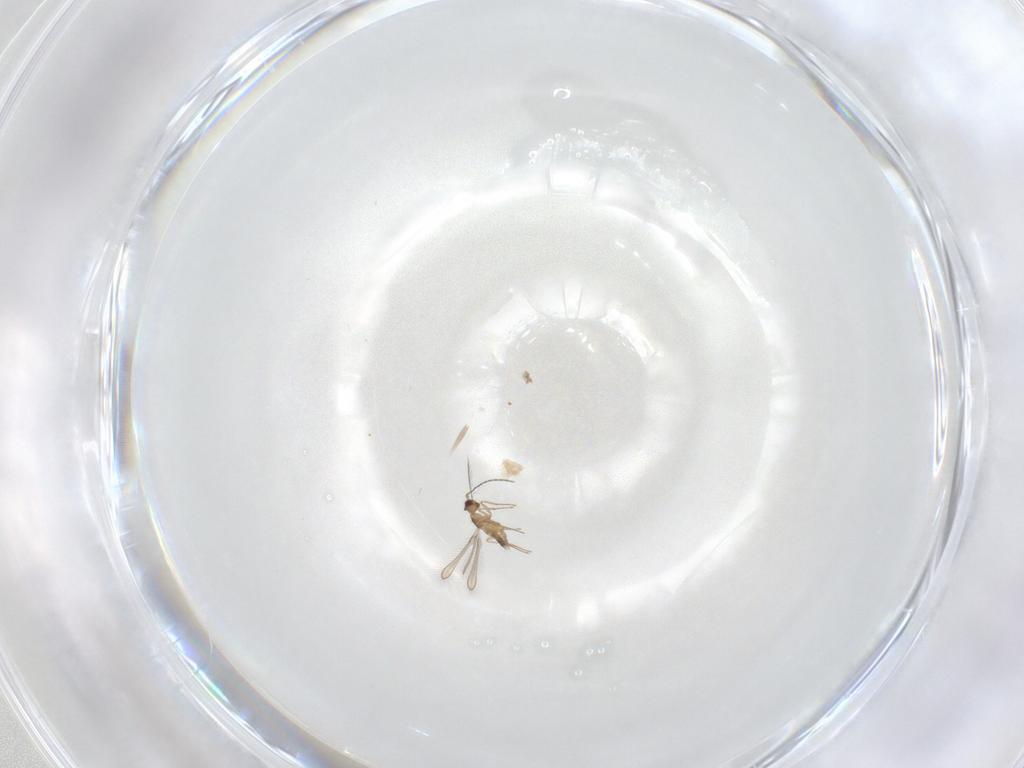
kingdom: Animalia
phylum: Arthropoda
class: Insecta
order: Hymenoptera
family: Mymaridae
